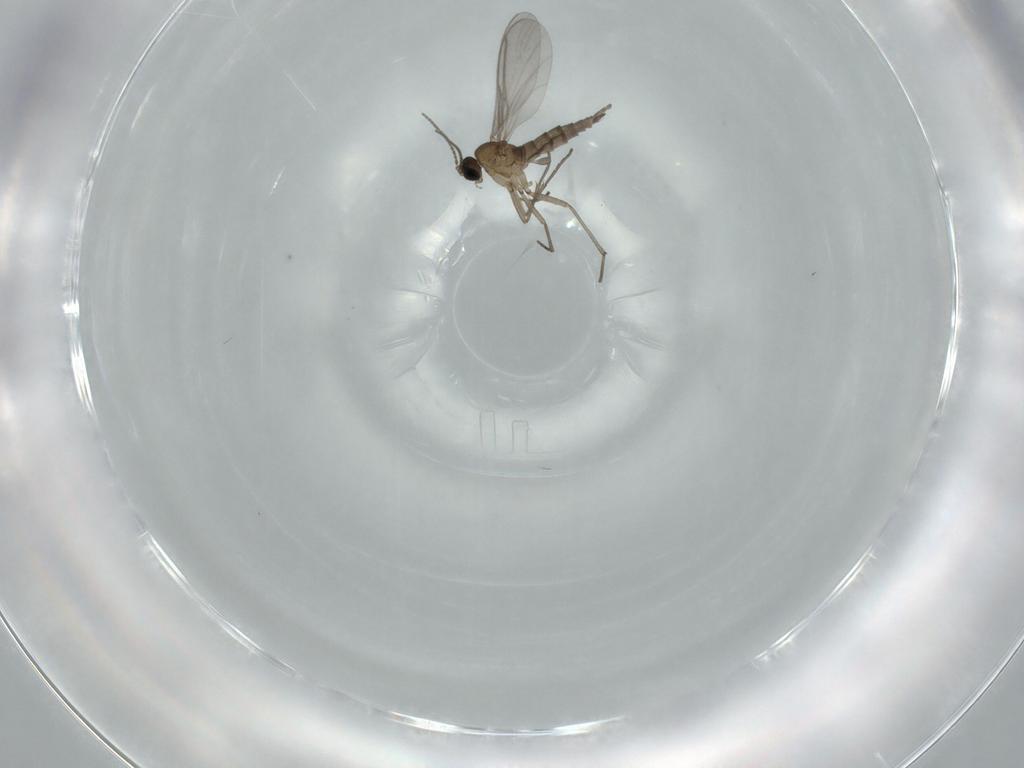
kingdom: Animalia
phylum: Arthropoda
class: Insecta
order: Diptera
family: Sciaridae
